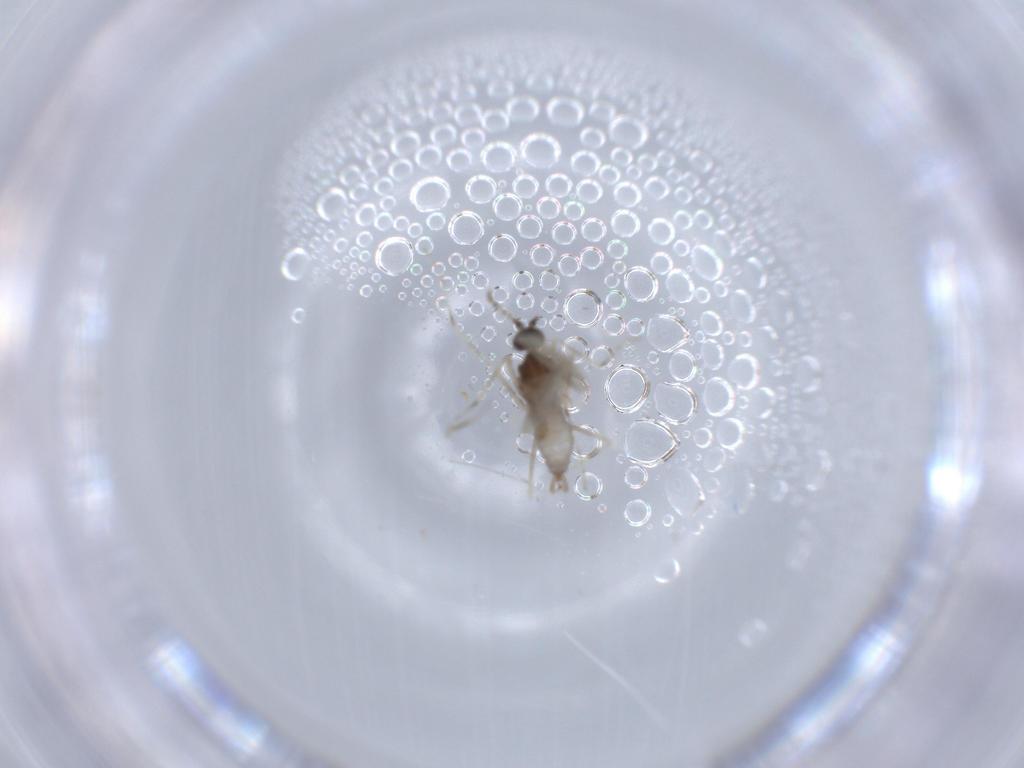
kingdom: Animalia
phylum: Arthropoda
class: Insecta
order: Diptera
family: Cecidomyiidae
